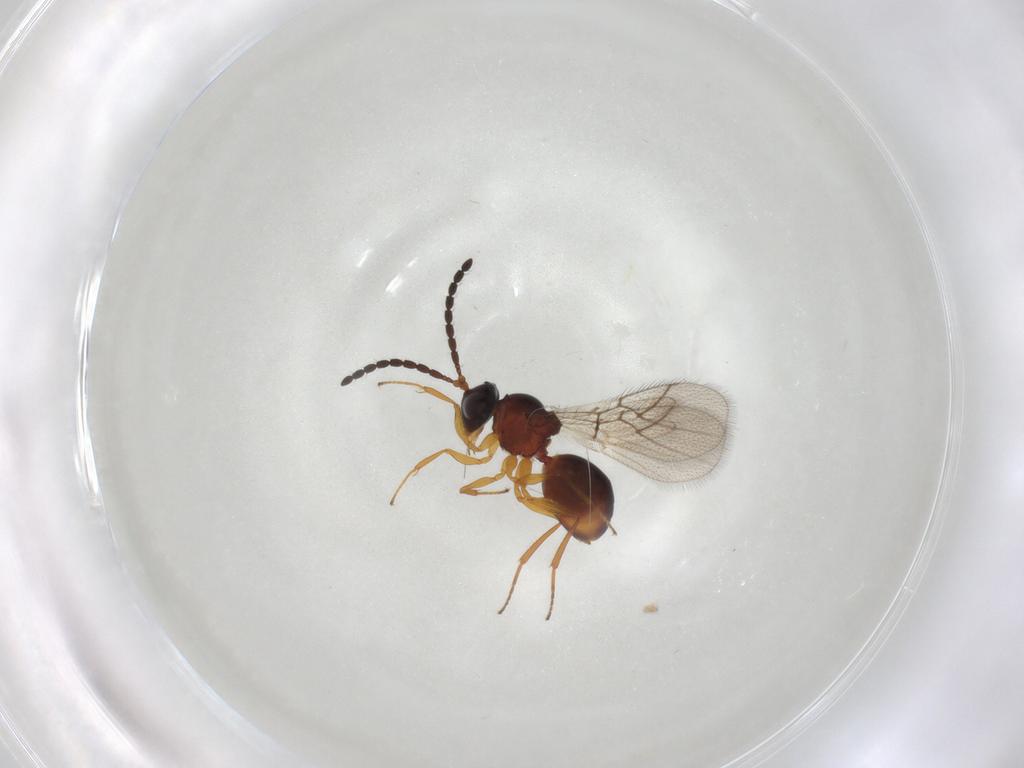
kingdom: Animalia
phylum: Arthropoda
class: Insecta
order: Hymenoptera
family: Figitidae
